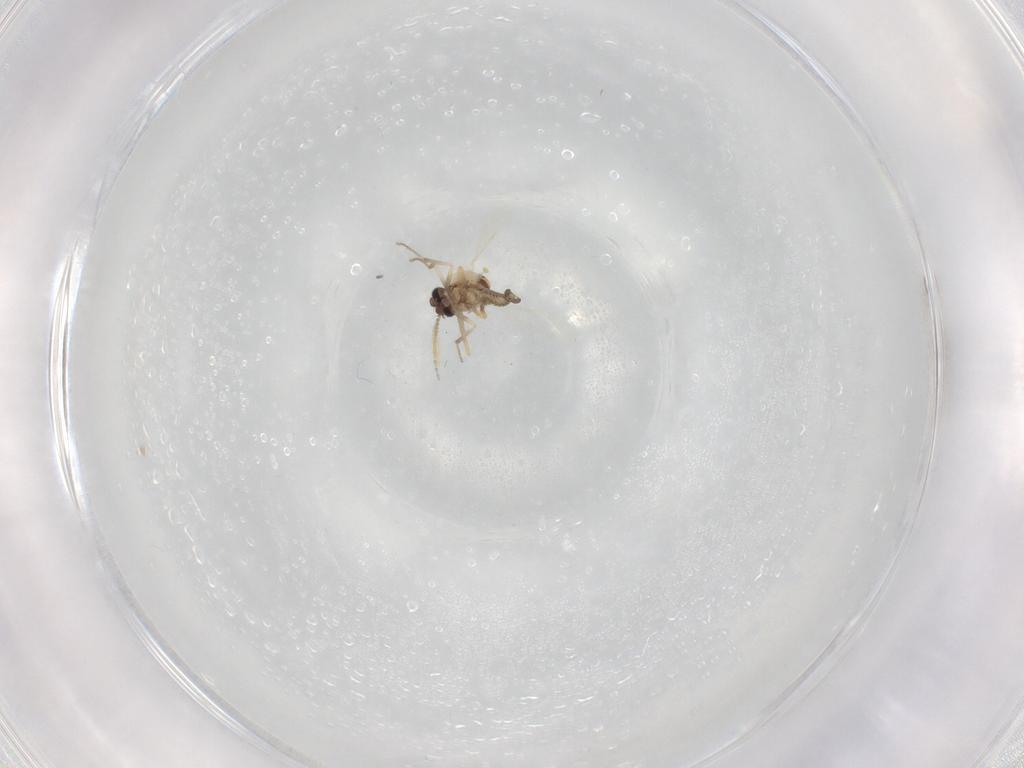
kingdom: Animalia
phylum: Arthropoda
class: Insecta
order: Diptera
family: Ceratopogonidae
